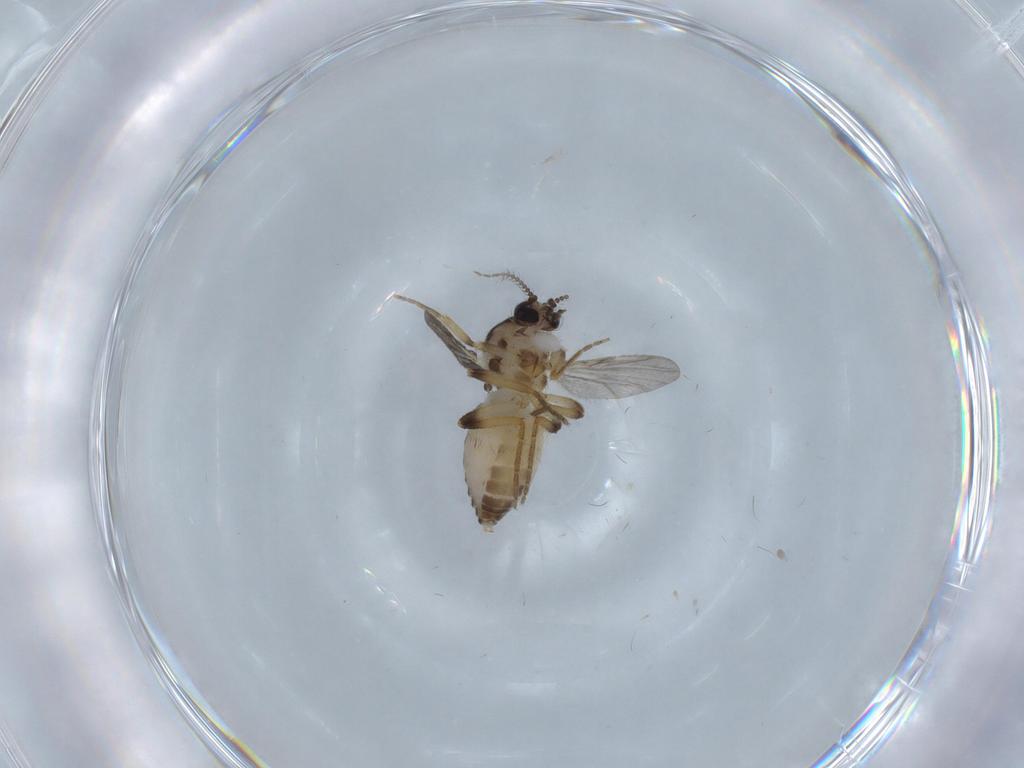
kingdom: Animalia
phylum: Arthropoda
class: Insecta
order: Diptera
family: Ceratopogonidae
